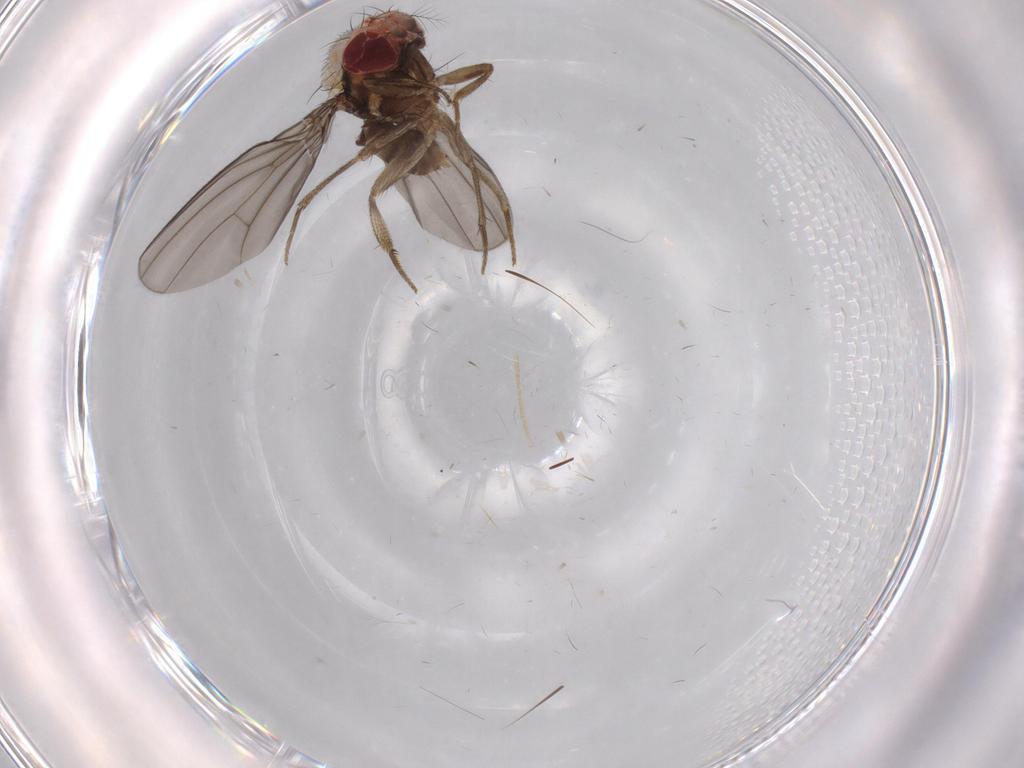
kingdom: Animalia
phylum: Arthropoda
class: Insecta
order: Diptera
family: Drosophilidae
